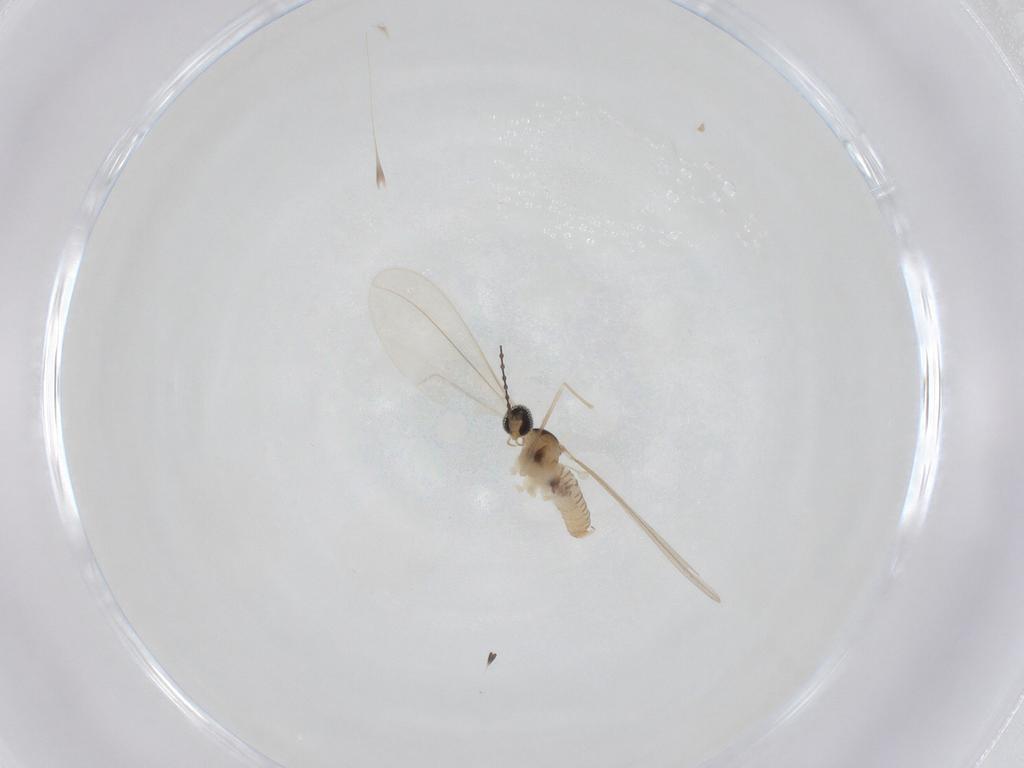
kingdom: Animalia
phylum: Arthropoda
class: Insecta
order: Diptera
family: Cecidomyiidae
